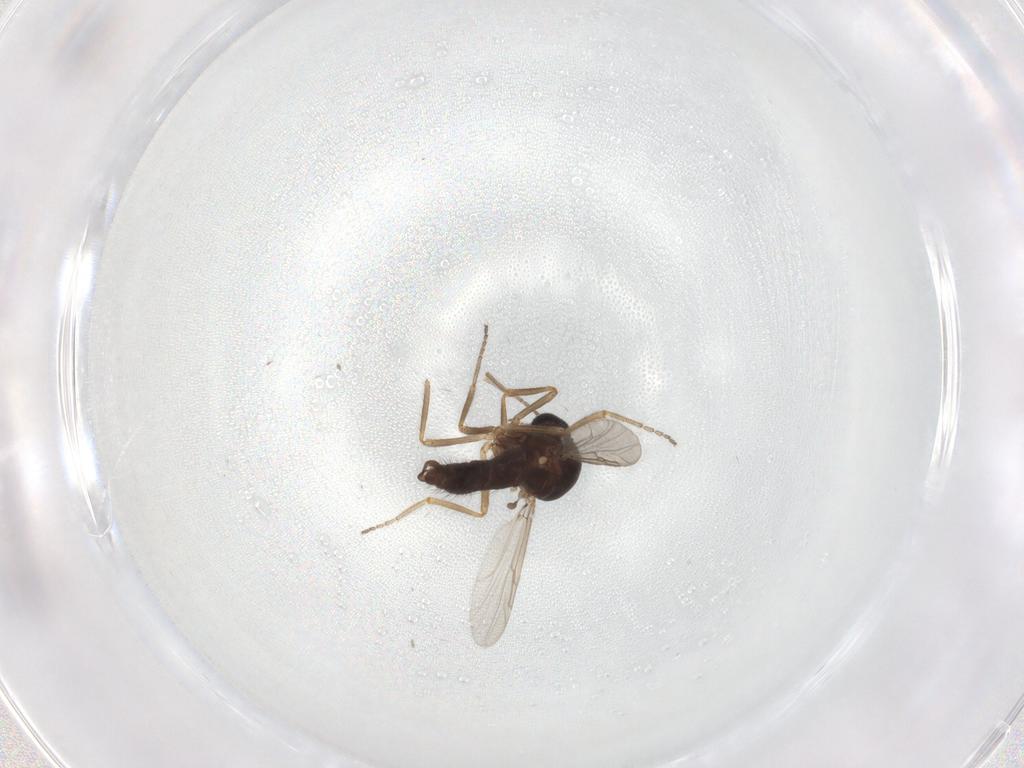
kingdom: Animalia
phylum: Arthropoda
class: Insecta
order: Diptera
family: Ceratopogonidae
